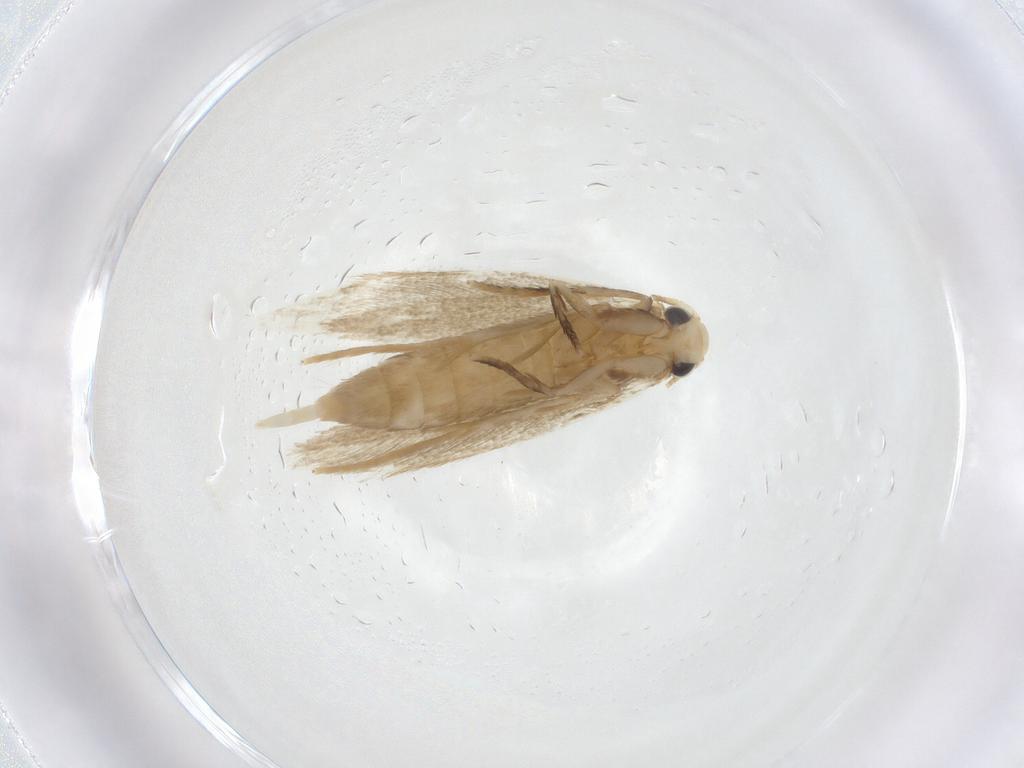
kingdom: Animalia
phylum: Arthropoda
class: Insecta
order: Lepidoptera
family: Tineidae
